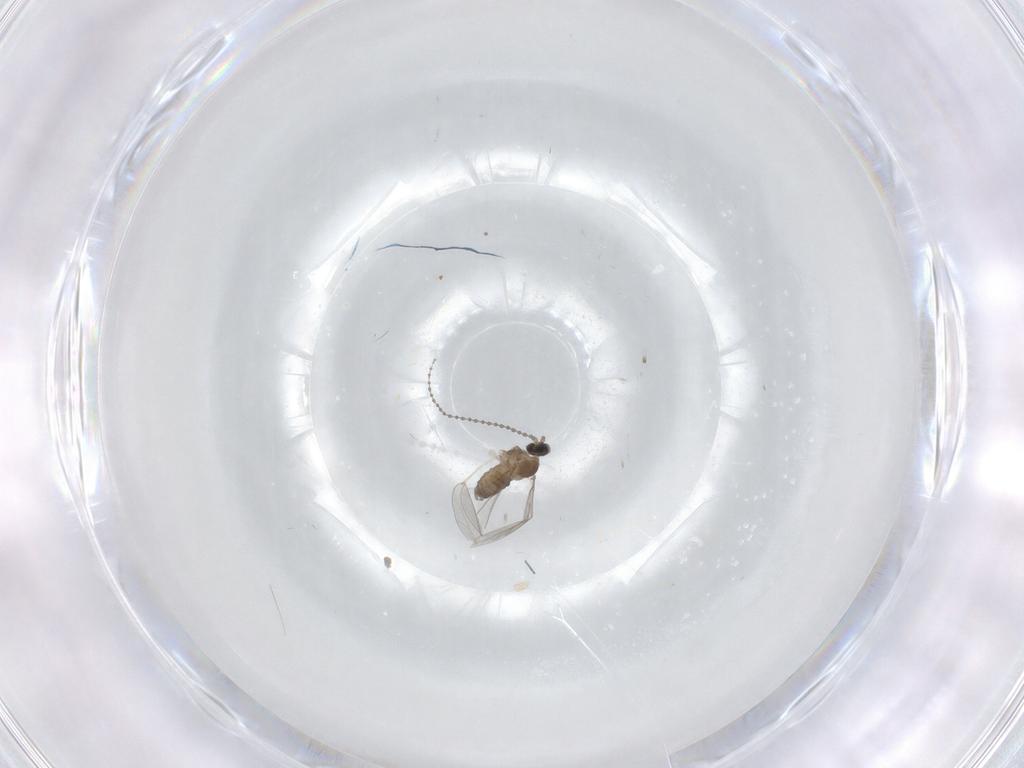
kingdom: Animalia
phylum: Arthropoda
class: Insecta
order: Diptera
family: Cecidomyiidae
